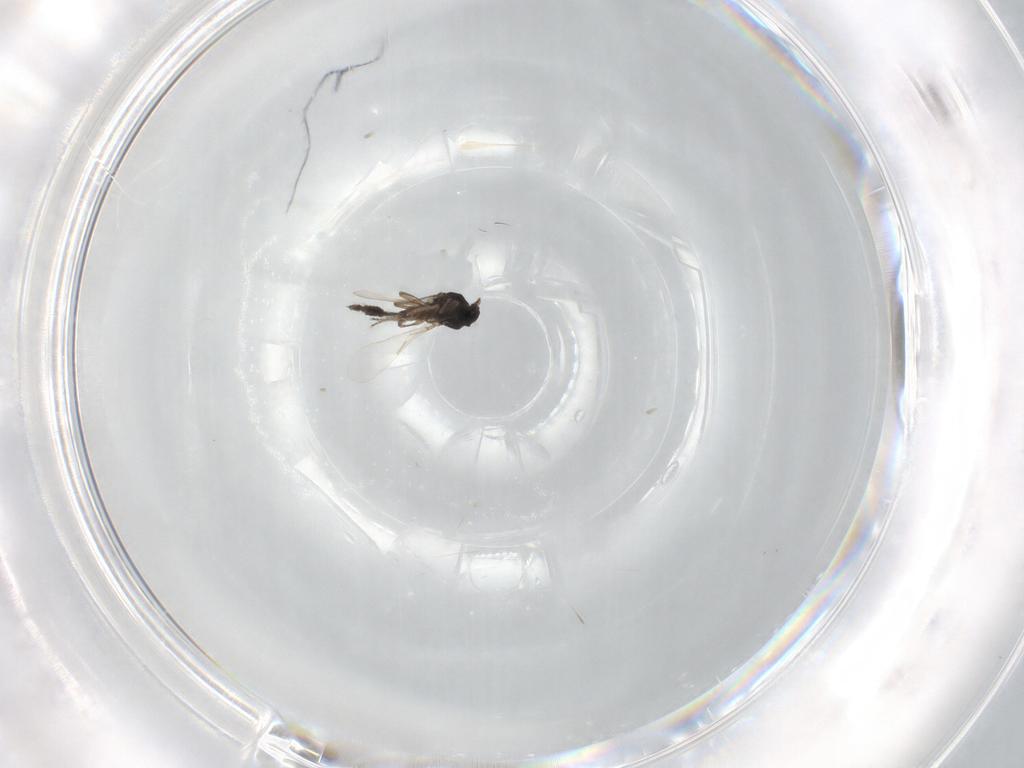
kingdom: Animalia
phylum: Arthropoda
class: Insecta
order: Diptera
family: Ceratopogonidae
